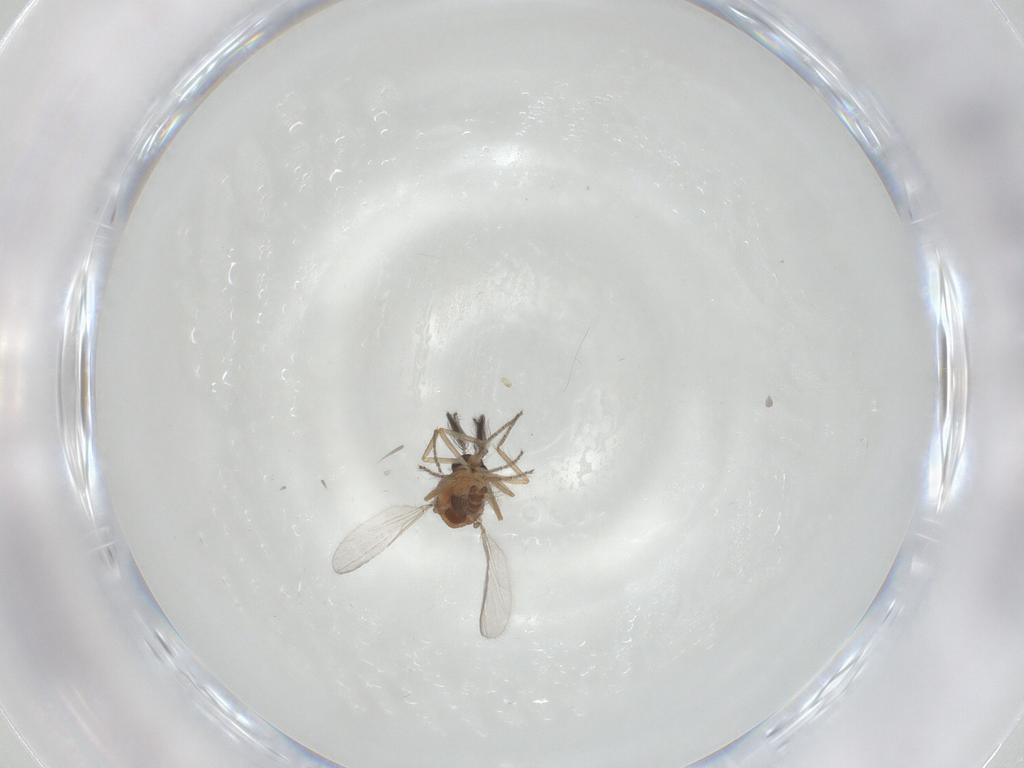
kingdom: Animalia
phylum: Arthropoda
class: Insecta
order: Diptera
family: Ceratopogonidae
